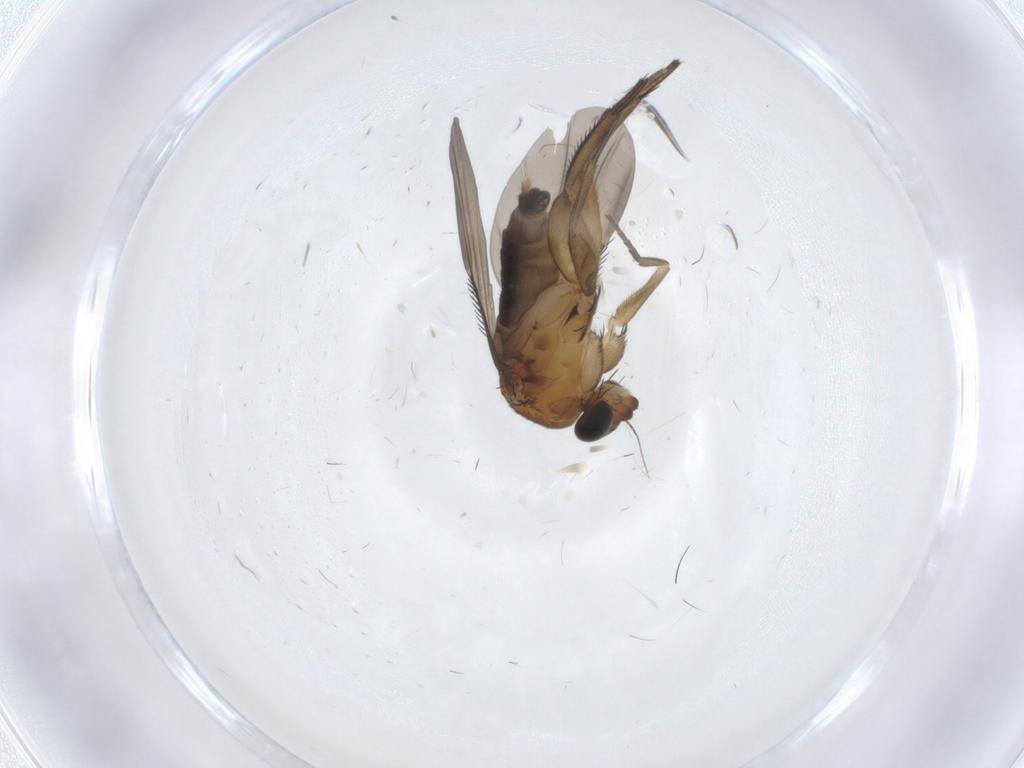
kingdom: Animalia
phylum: Arthropoda
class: Insecta
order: Diptera
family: Phoridae
